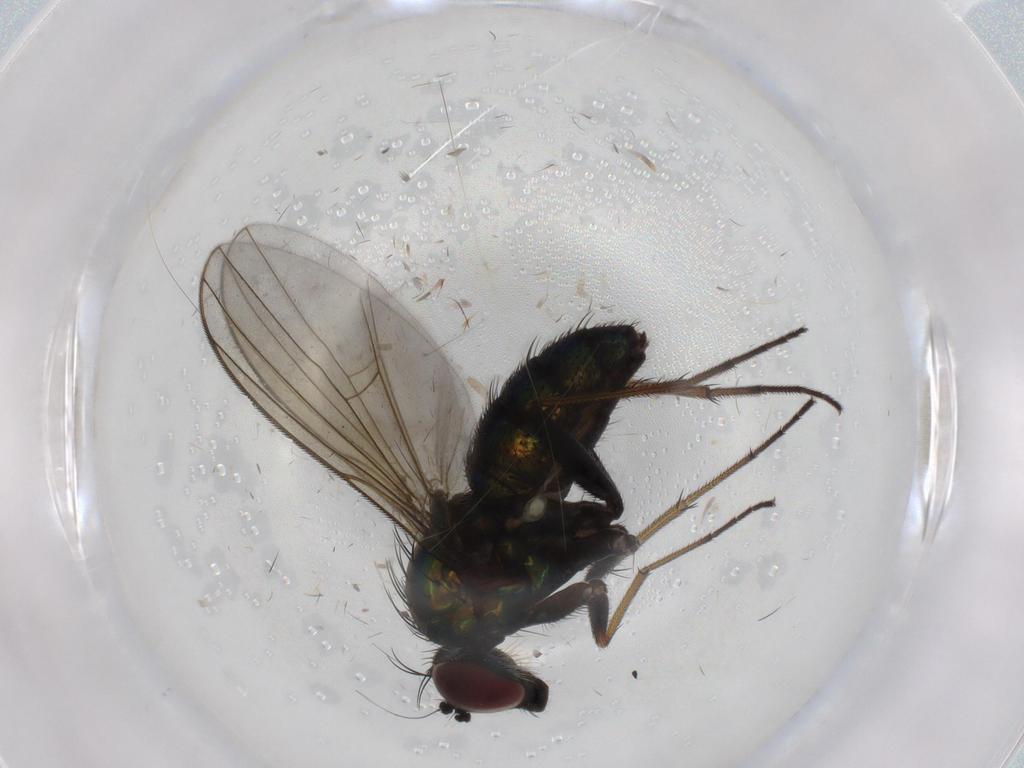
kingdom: Animalia
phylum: Arthropoda
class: Insecta
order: Diptera
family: Dolichopodidae
